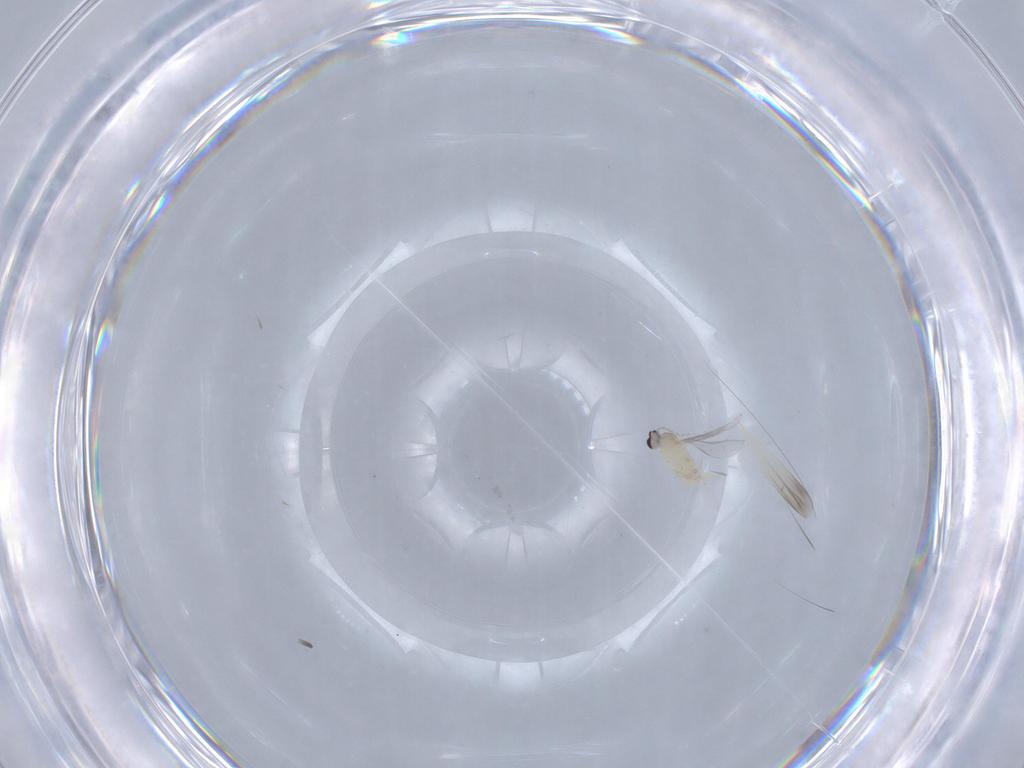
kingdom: Animalia
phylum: Arthropoda
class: Insecta
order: Diptera
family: Cecidomyiidae
